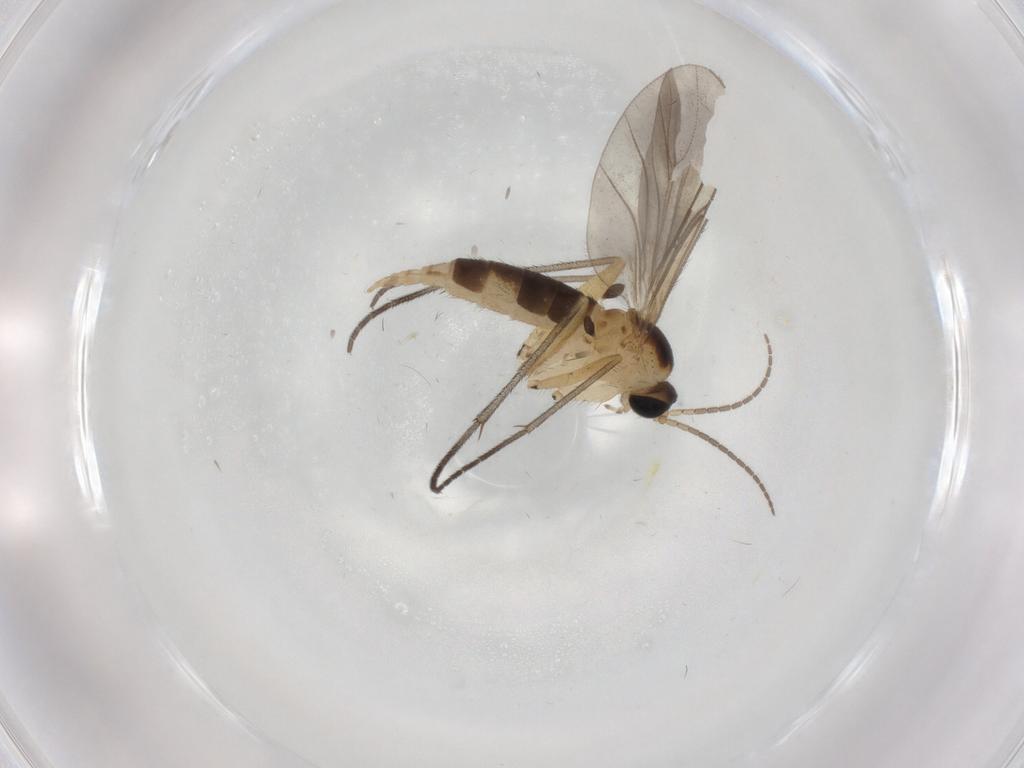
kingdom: Animalia
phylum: Arthropoda
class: Insecta
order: Diptera
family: Sciaridae
